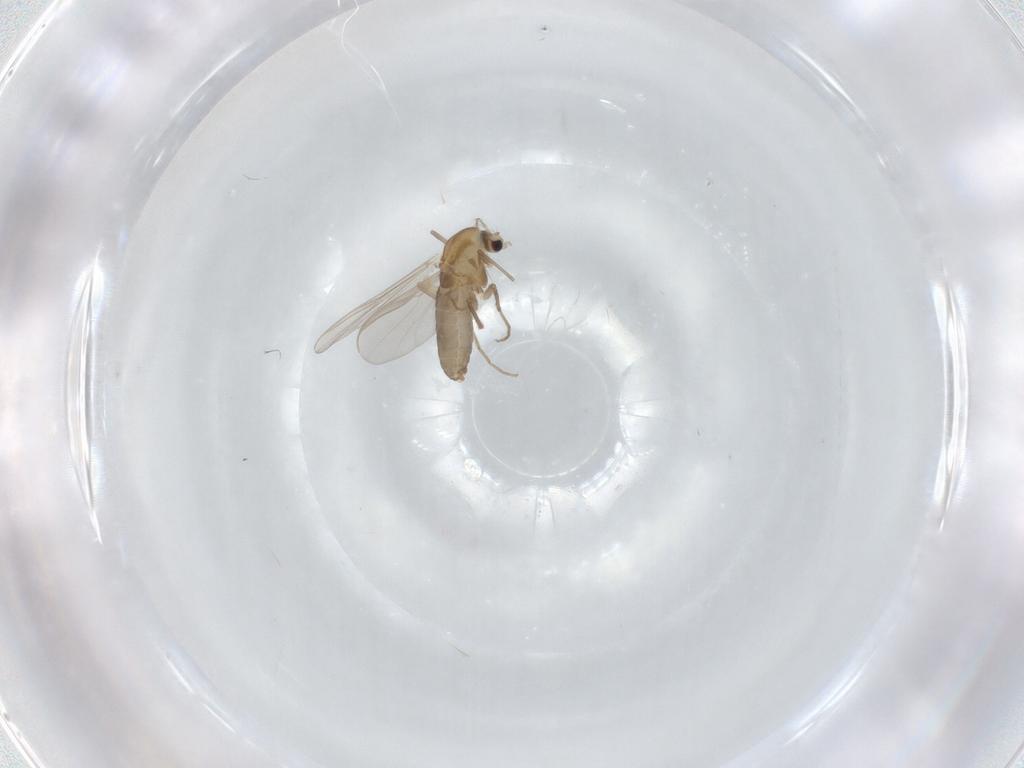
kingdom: Animalia
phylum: Arthropoda
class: Insecta
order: Diptera
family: Chironomidae
